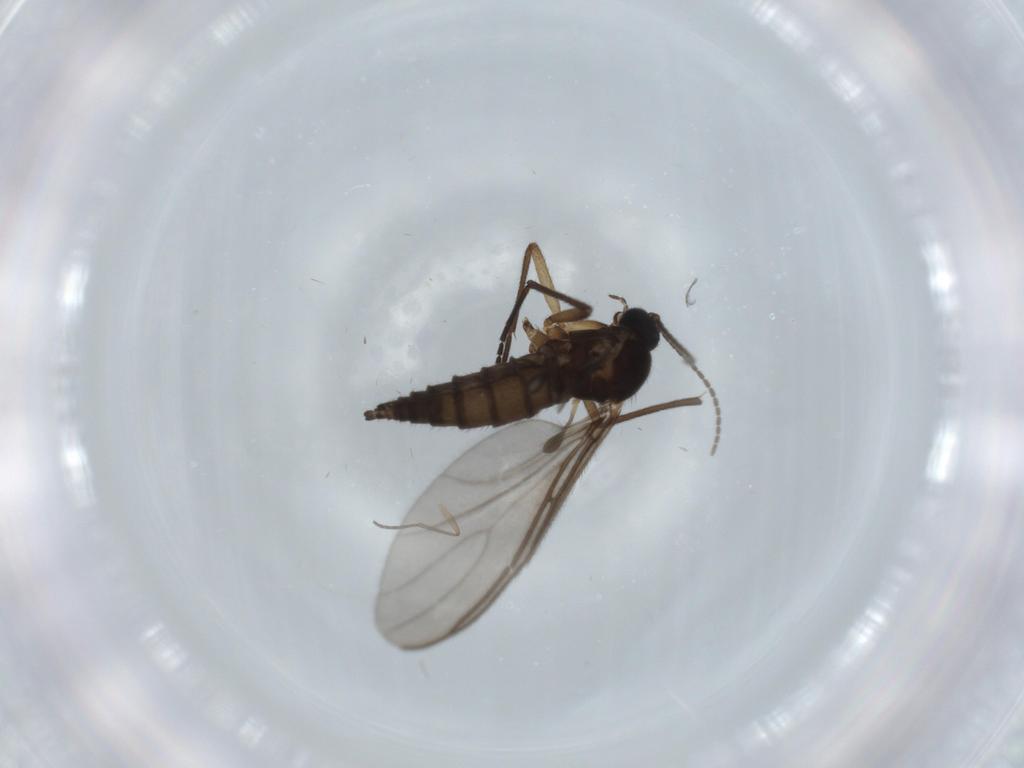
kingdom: Animalia
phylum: Arthropoda
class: Insecta
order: Diptera
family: Sciaridae
